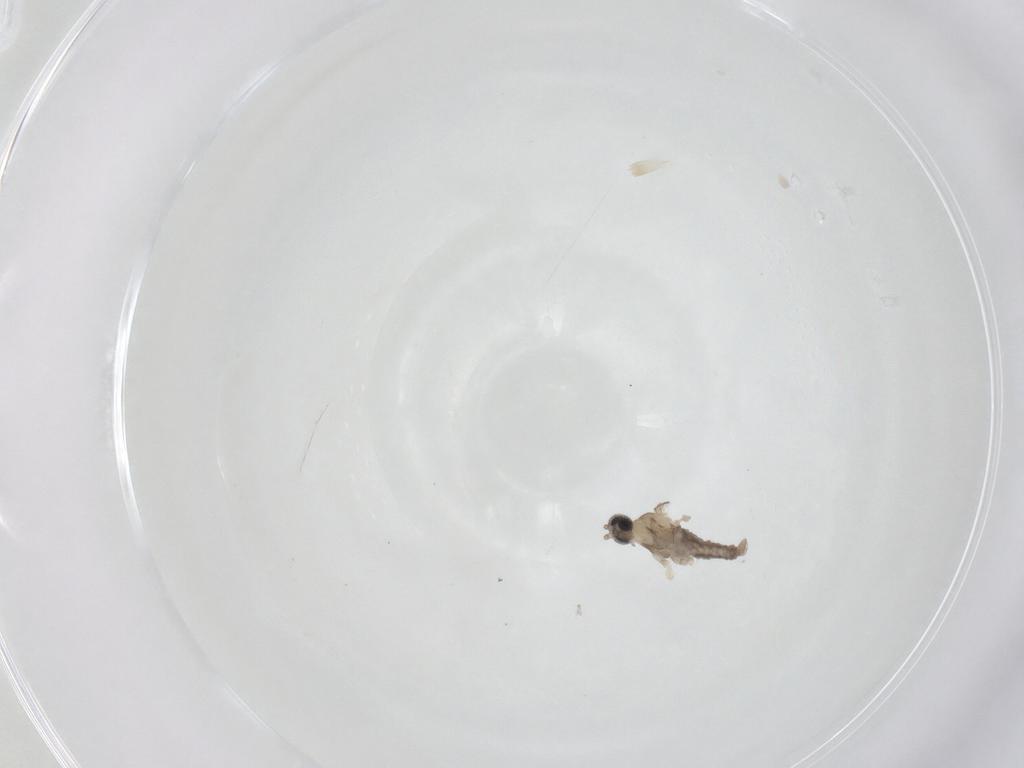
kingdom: Animalia
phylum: Arthropoda
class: Insecta
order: Diptera
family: Cecidomyiidae
